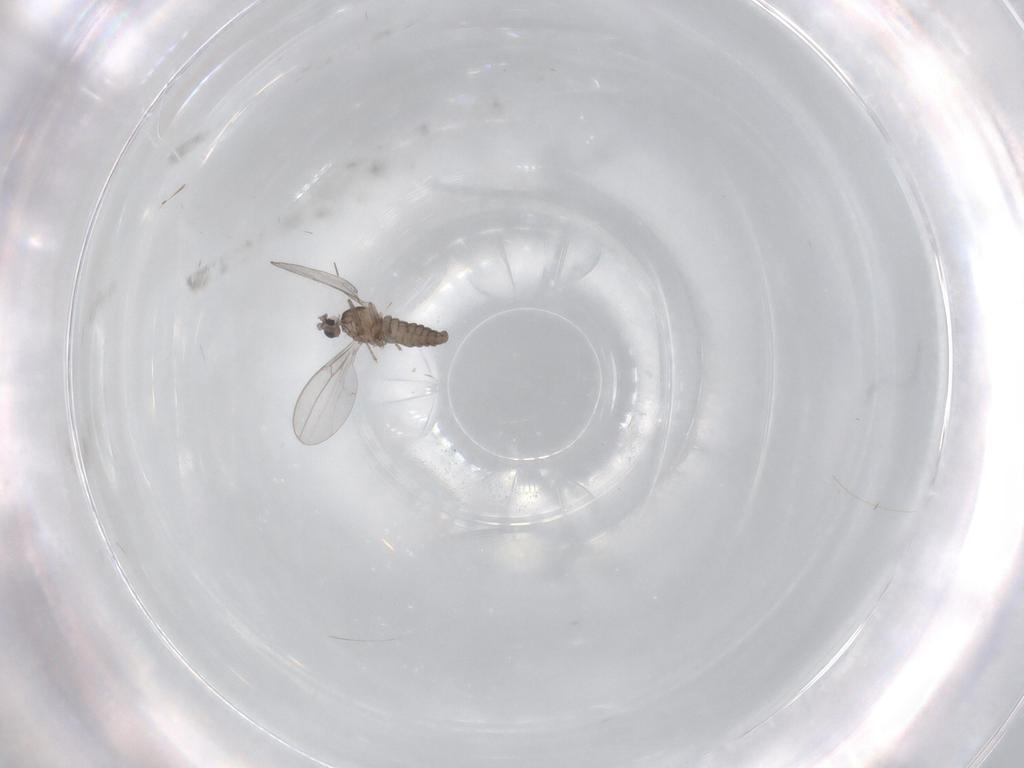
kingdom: Animalia
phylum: Arthropoda
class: Insecta
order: Diptera
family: Cecidomyiidae
